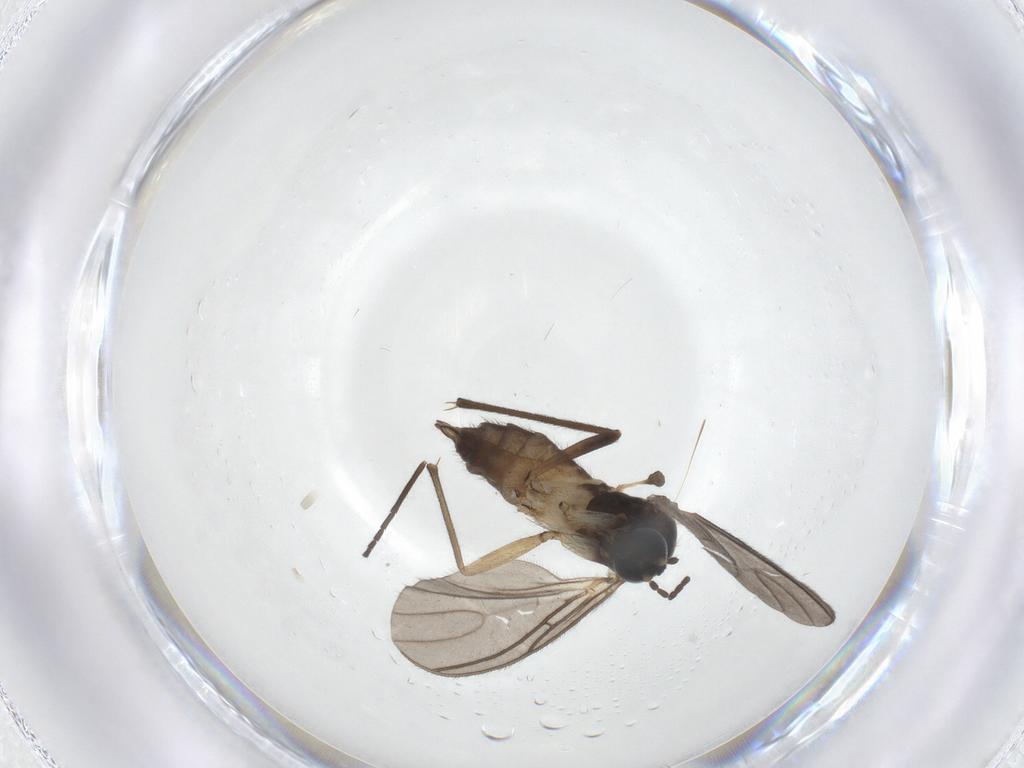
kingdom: Animalia
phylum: Arthropoda
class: Insecta
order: Diptera
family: Sciaridae
